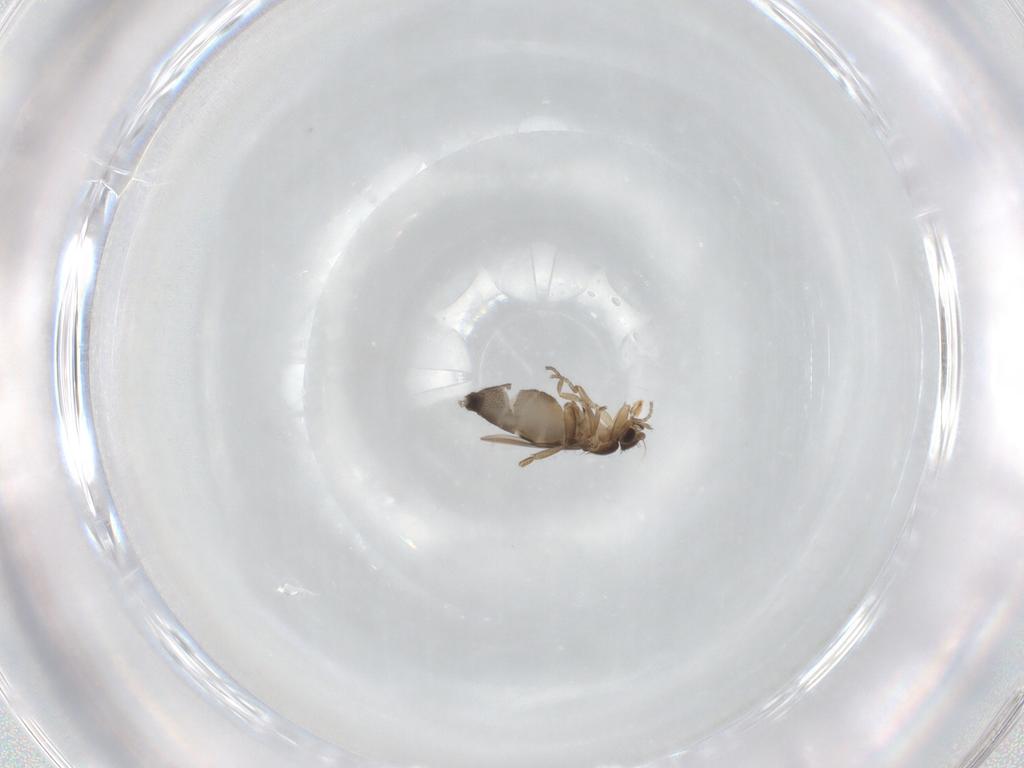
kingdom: Animalia
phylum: Arthropoda
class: Insecta
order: Diptera
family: Phoridae
